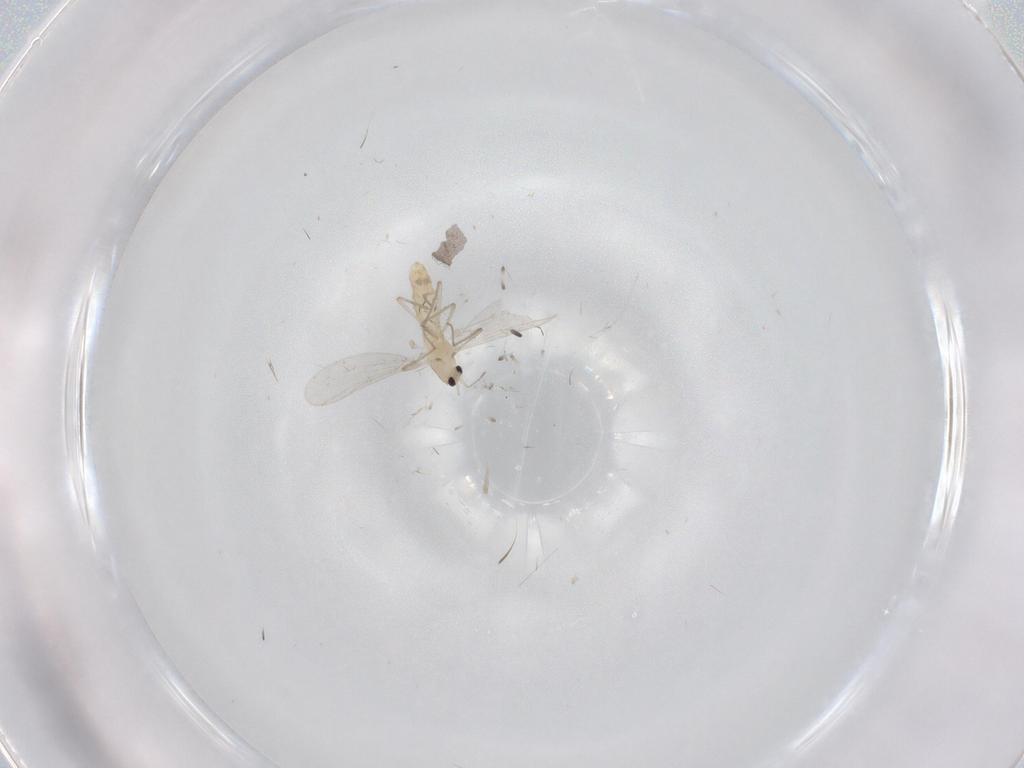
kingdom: Animalia
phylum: Arthropoda
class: Insecta
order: Diptera
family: Chironomidae
